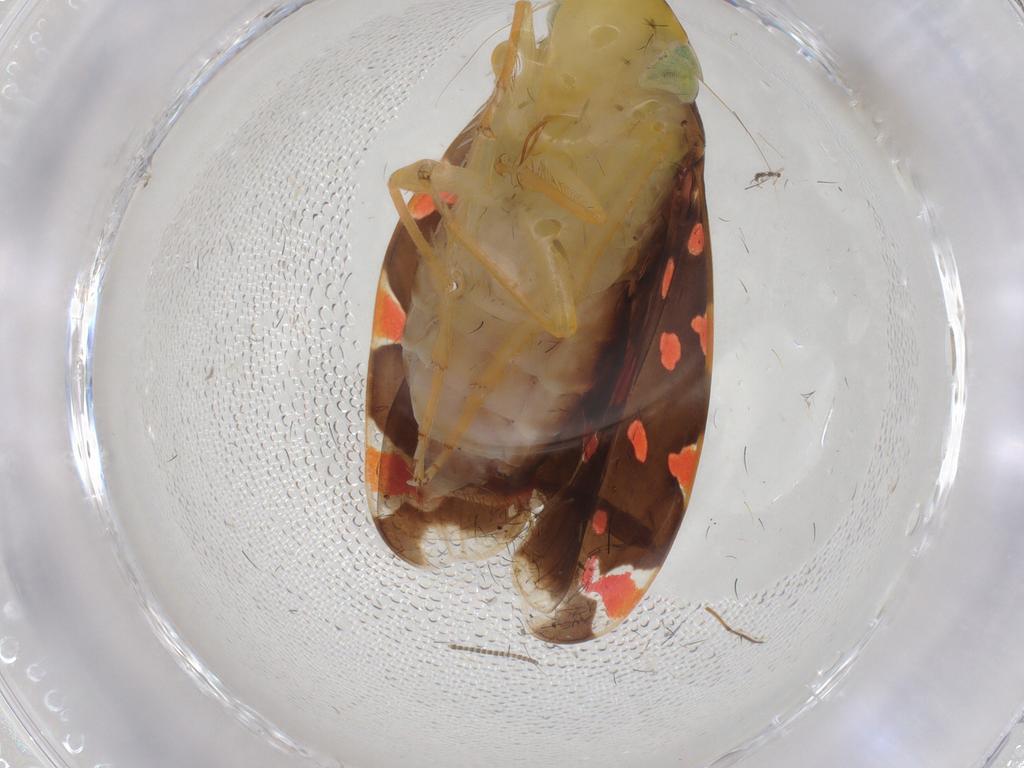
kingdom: Animalia
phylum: Arthropoda
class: Insecta
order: Hemiptera
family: Cicadellidae
